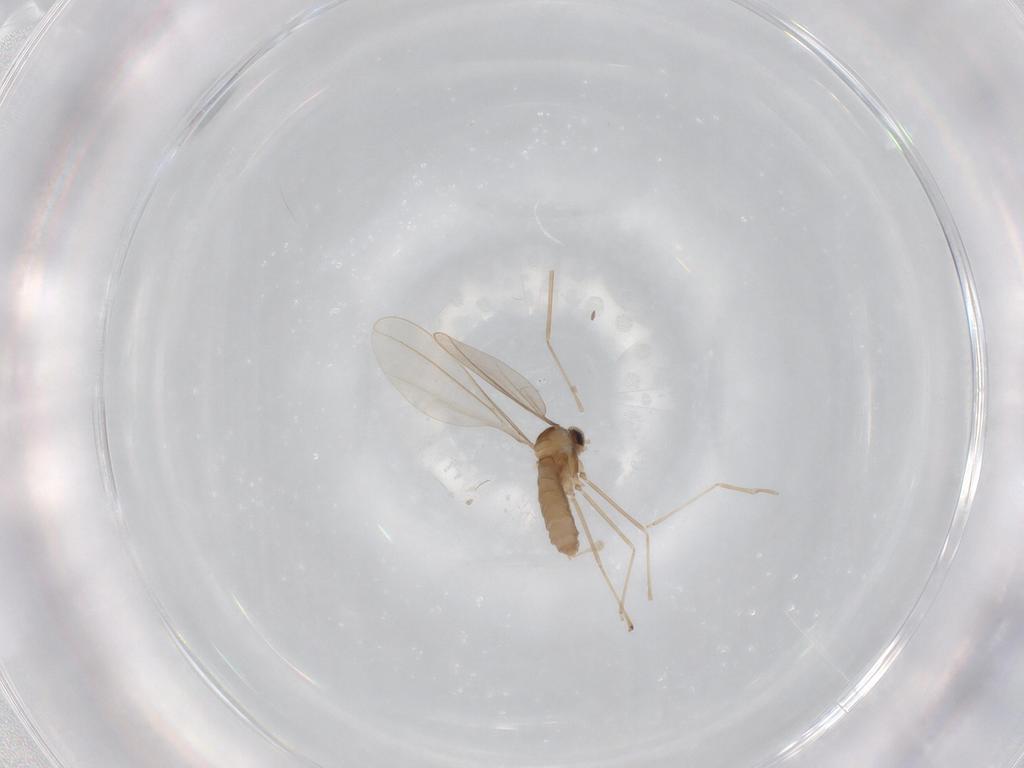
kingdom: Animalia
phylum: Arthropoda
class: Insecta
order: Diptera
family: Cecidomyiidae
